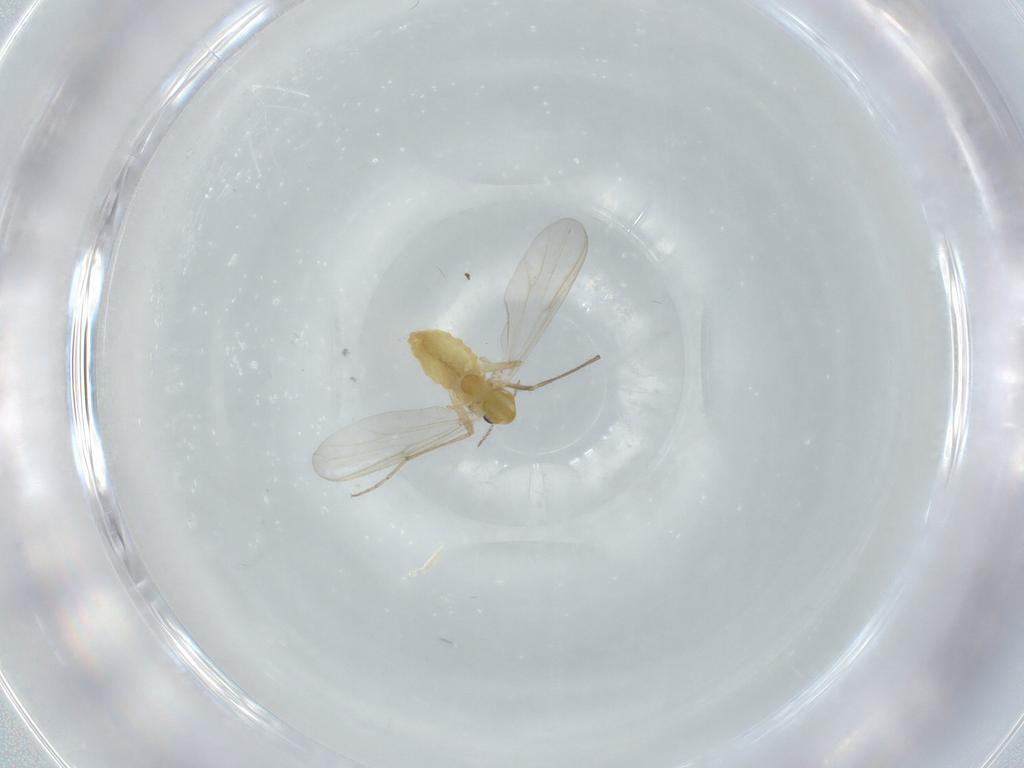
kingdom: Animalia
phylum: Arthropoda
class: Insecta
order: Diptera
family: Chironomidae
